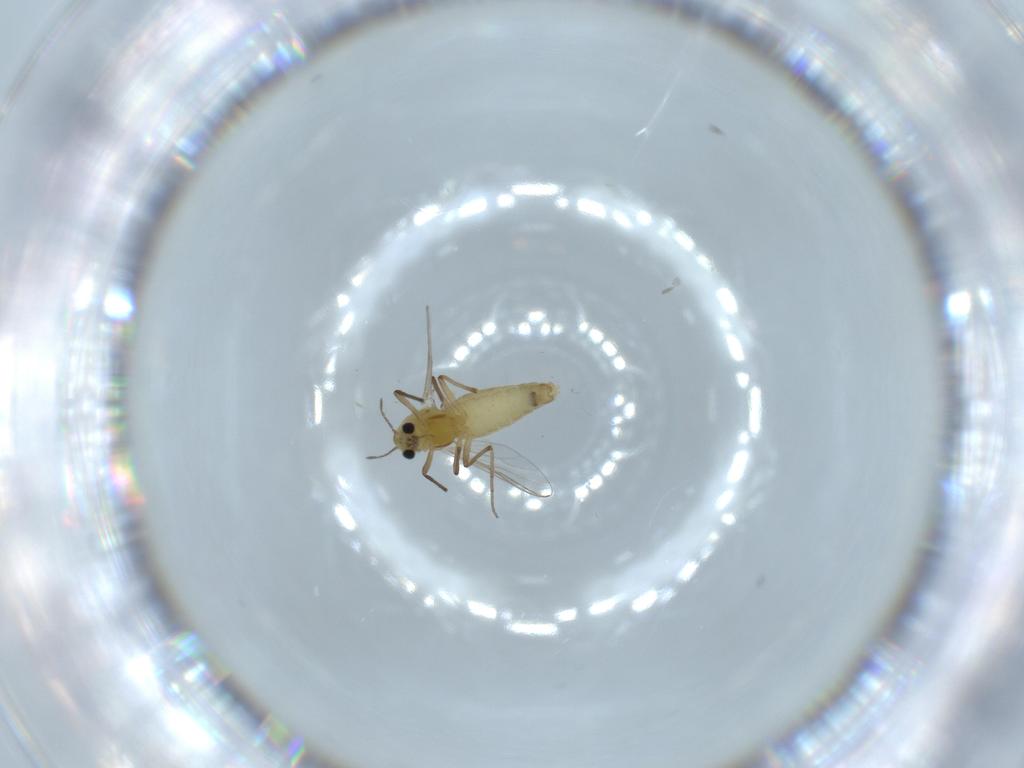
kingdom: Animalia
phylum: Arthropoda
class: Insecta
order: Diptera
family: Chironomidae
